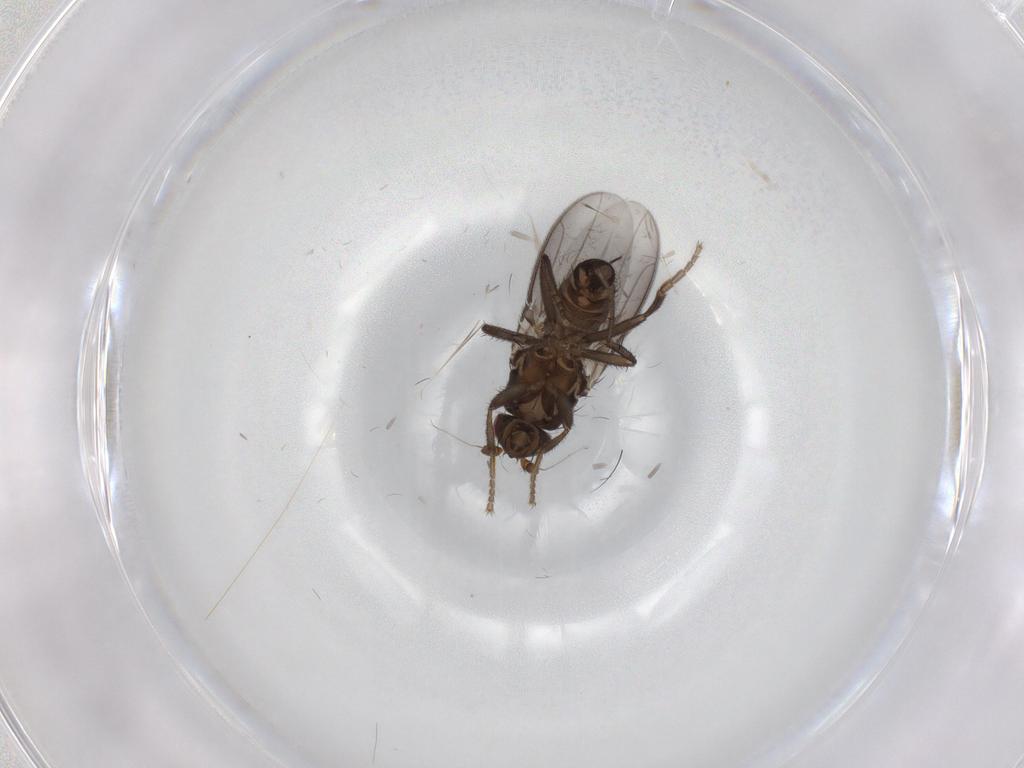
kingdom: Animalia
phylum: Arthropoda
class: Insecta
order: Diptera
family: Sphaeroceridae
